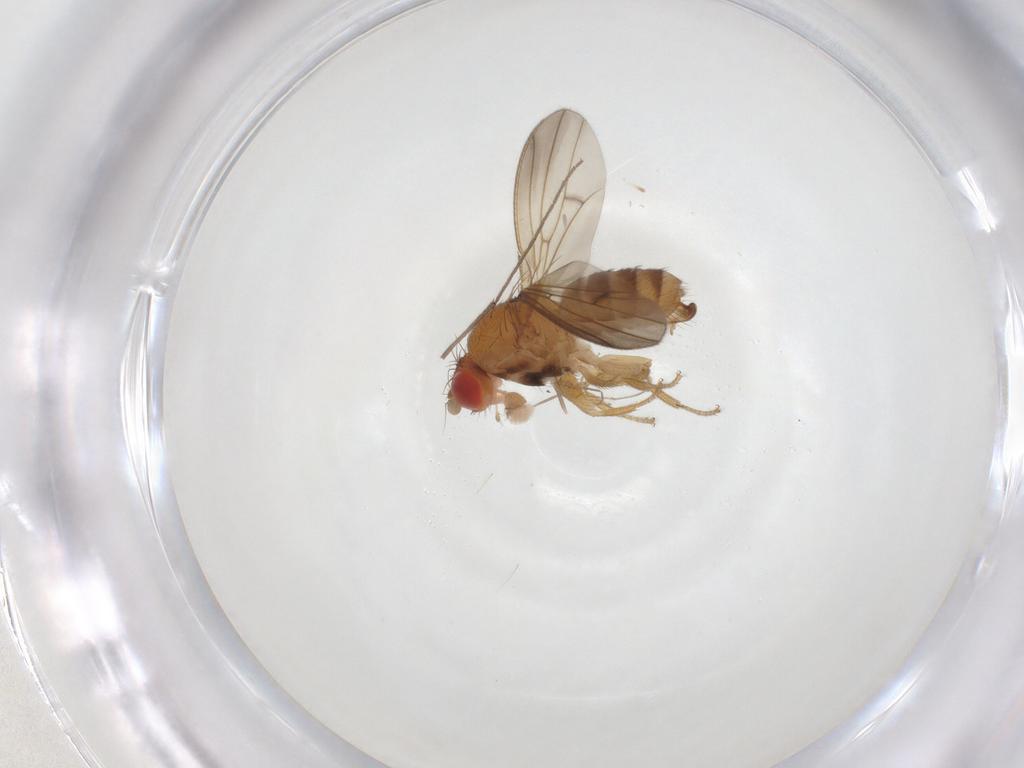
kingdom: Animalia
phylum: Arthropoda
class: Insecta
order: Diptera
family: Drosophilidae
